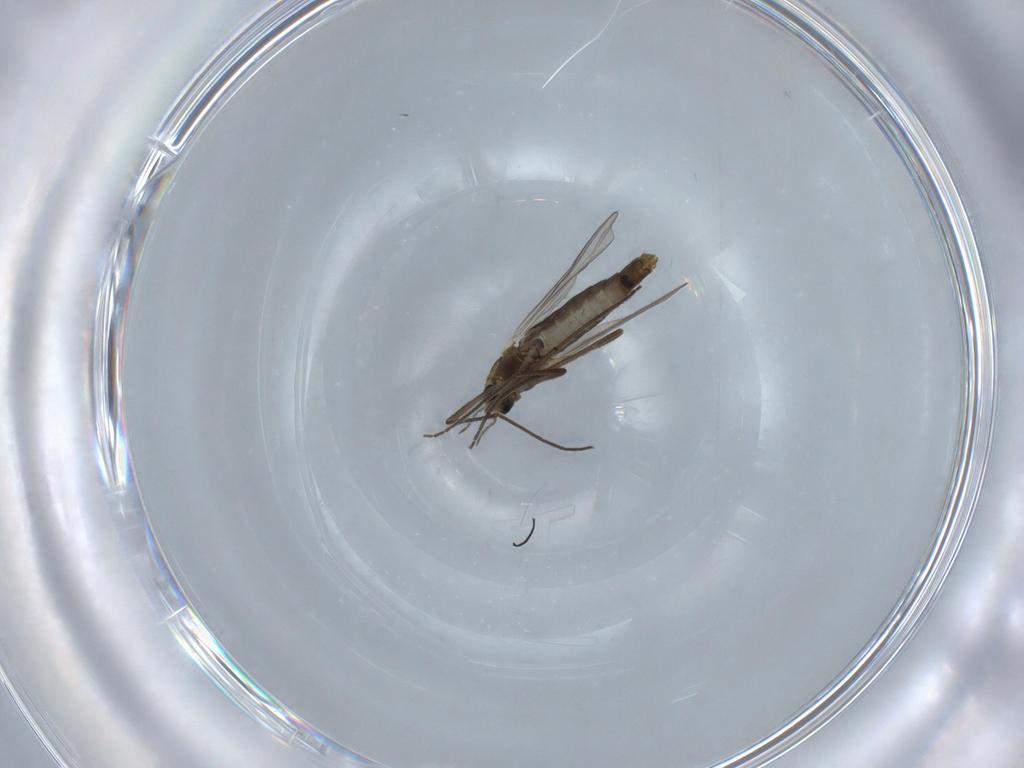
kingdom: Animalia
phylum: Arthropoda
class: Insecta
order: Diptera
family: Chironomidae
